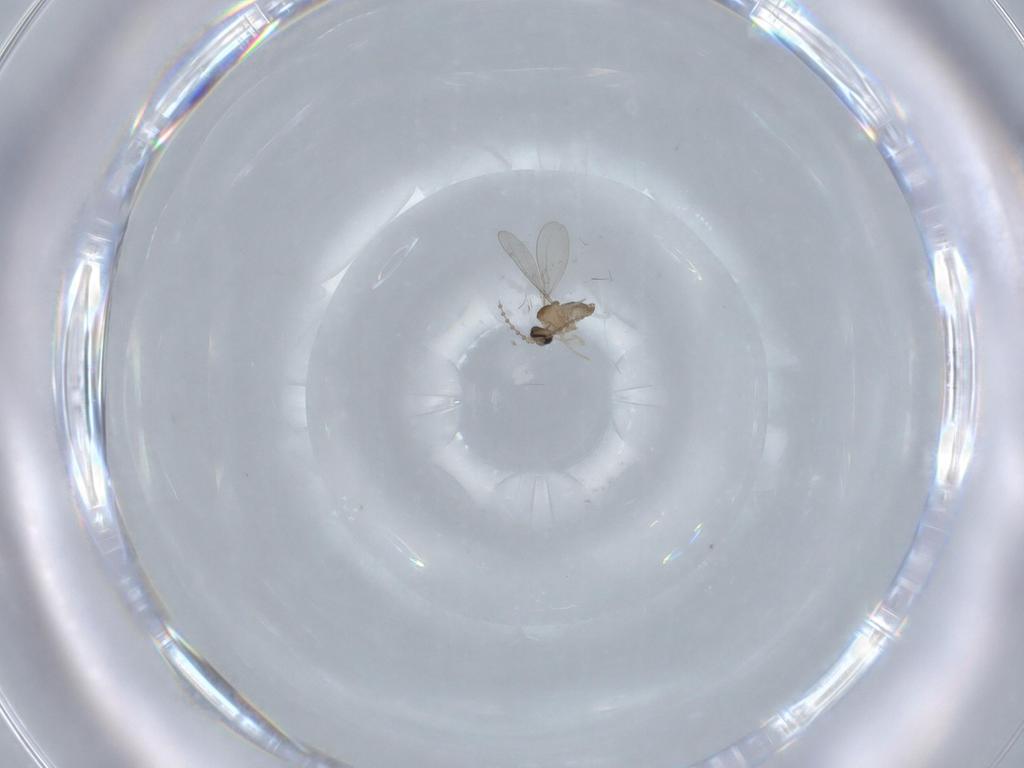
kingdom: Animalia
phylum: Arthropoda
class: Insecta
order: Diptera
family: Cecidomyiidae
